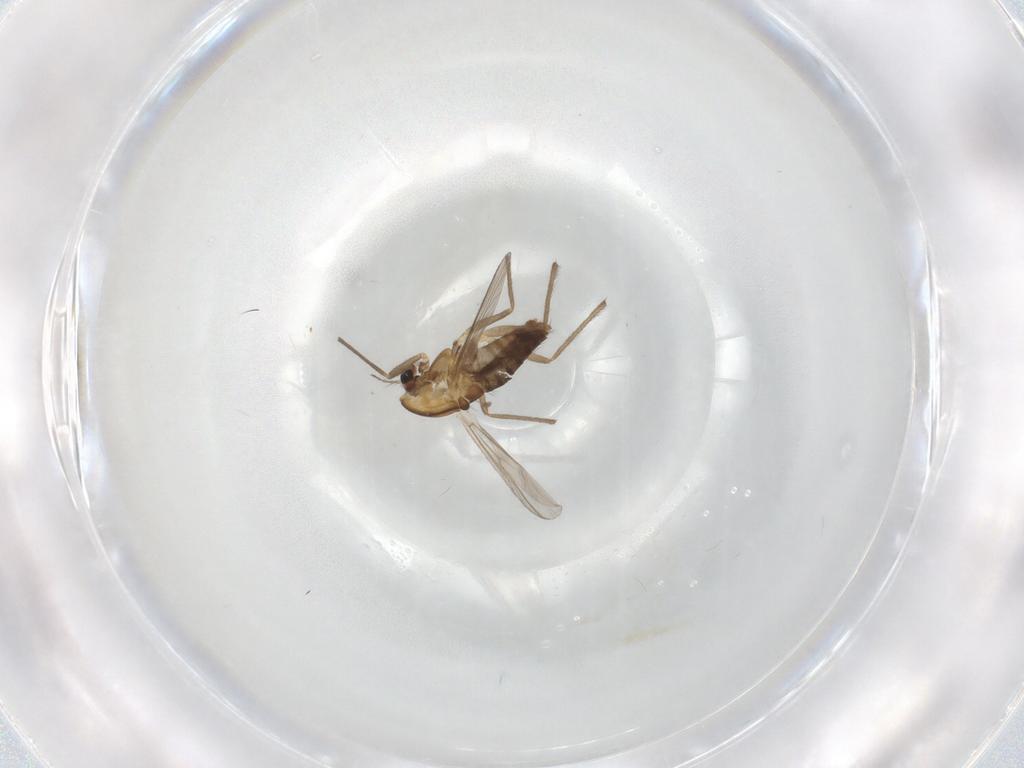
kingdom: Animalia
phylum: Arthropoda
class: Insecta
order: Diptera
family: Chironomidae
